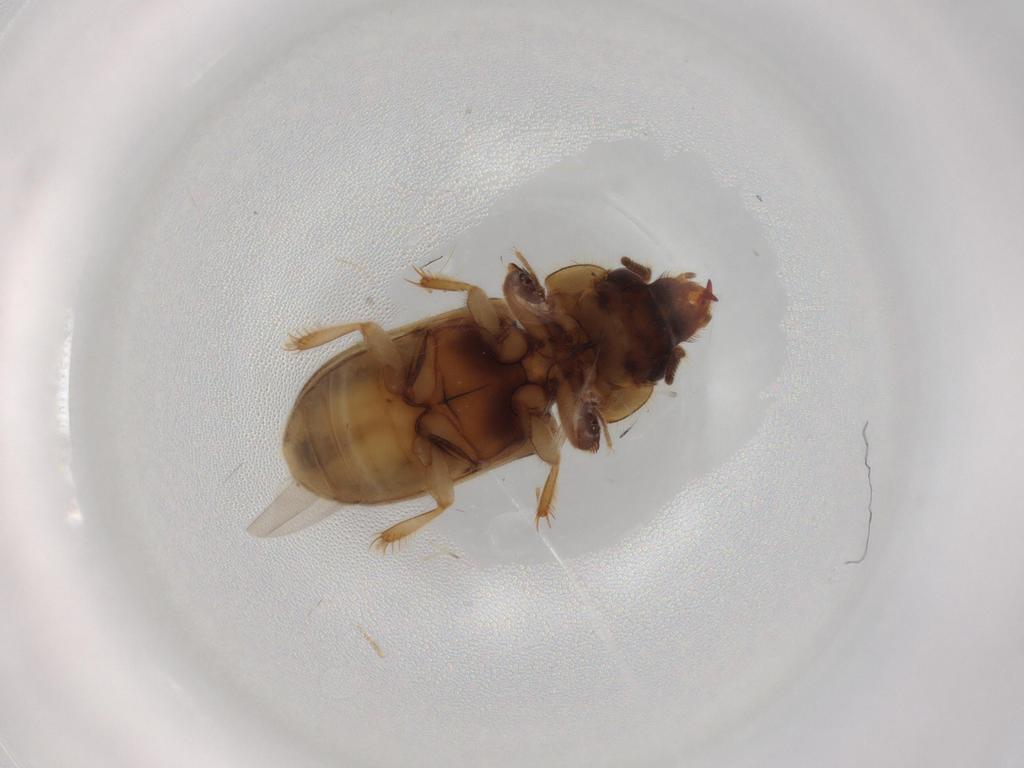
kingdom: Animalia
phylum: Arthropoda
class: Insecta
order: Coleoptera
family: Heteroceridae
